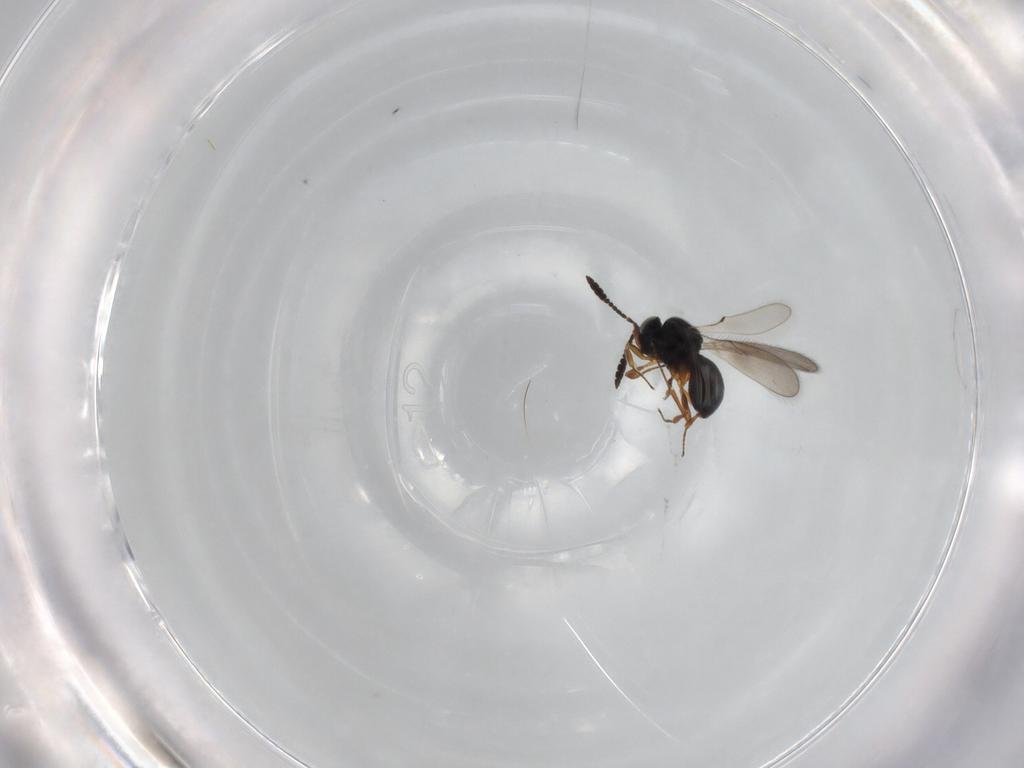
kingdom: Animalia
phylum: Arthropoda
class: Insecta
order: Hymenoptera
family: Scelionidae
